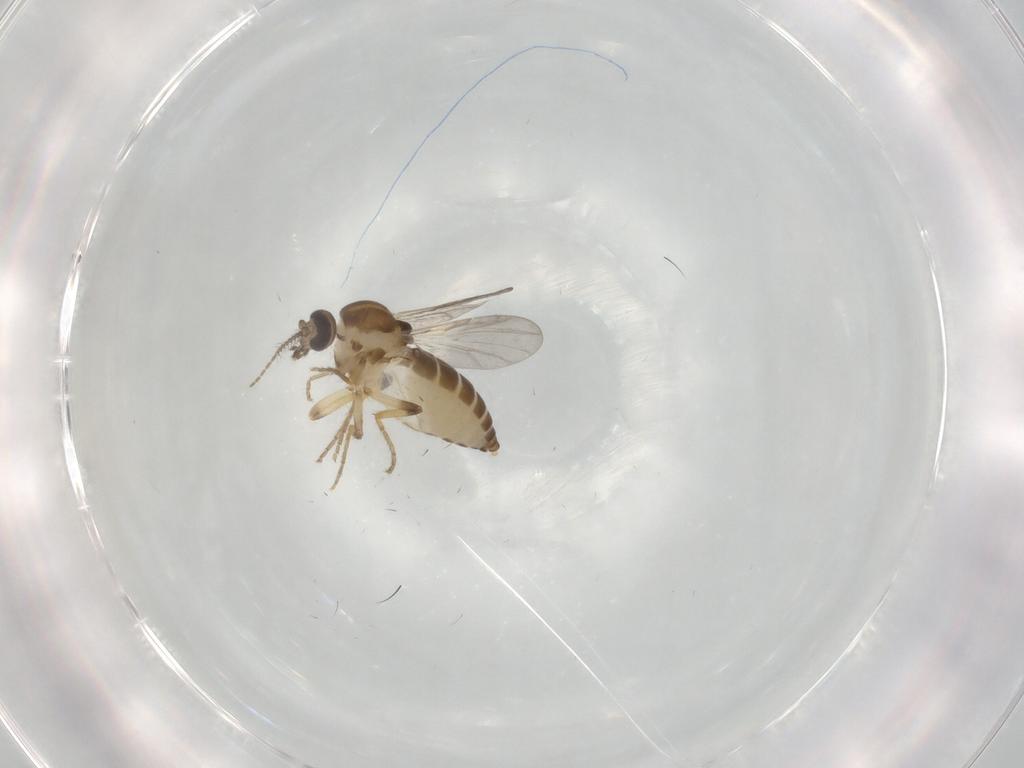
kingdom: Animalia
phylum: Arthropoda
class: Insecta
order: Diptera
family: Ceratopogonidae
